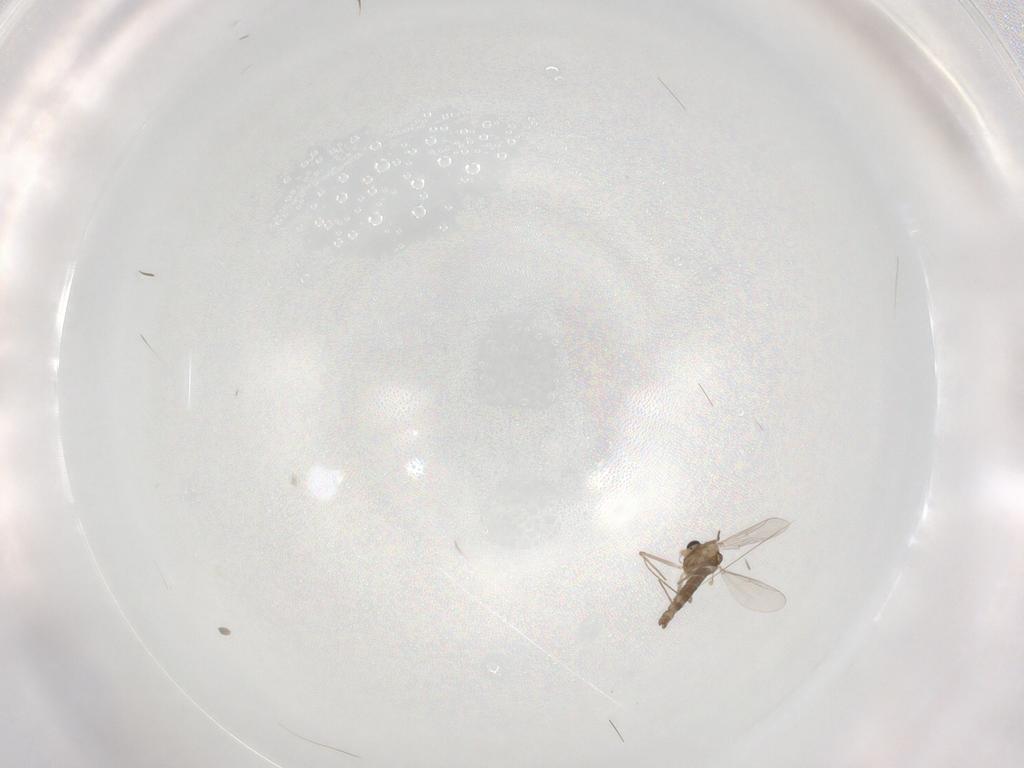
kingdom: Animalia
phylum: Arthropoda
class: Insecta
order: Diptera
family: Chironomidae
